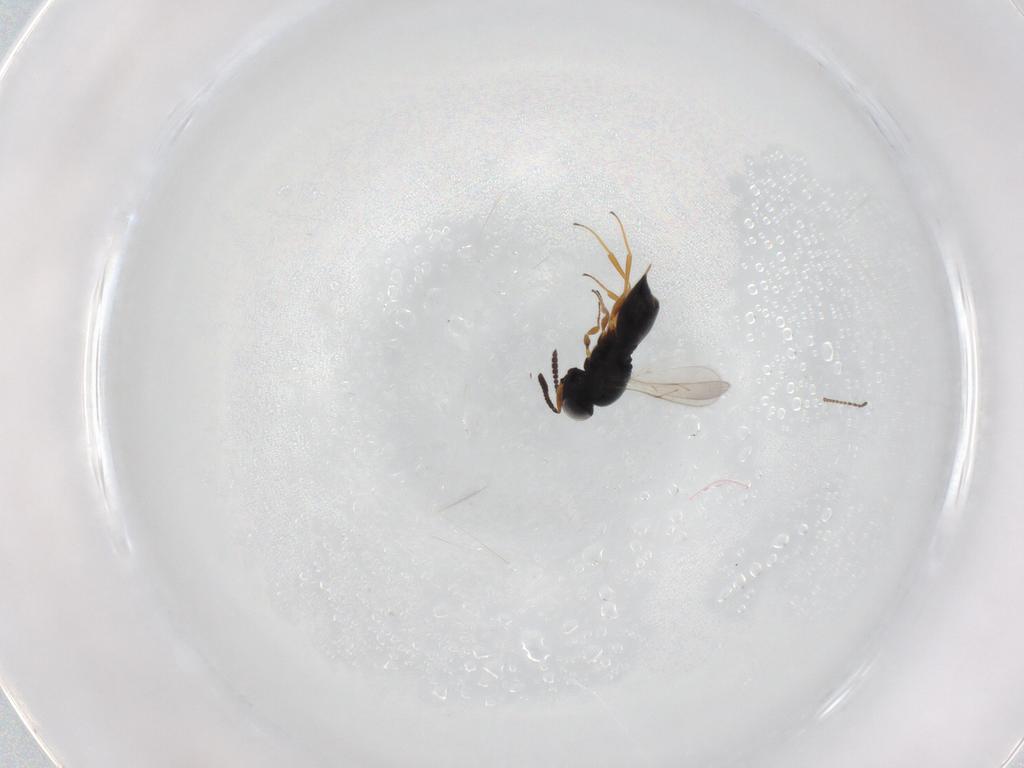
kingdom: Animalia
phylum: Arthropoda
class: Insecta
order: Hymenoptera
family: Scelionidae
